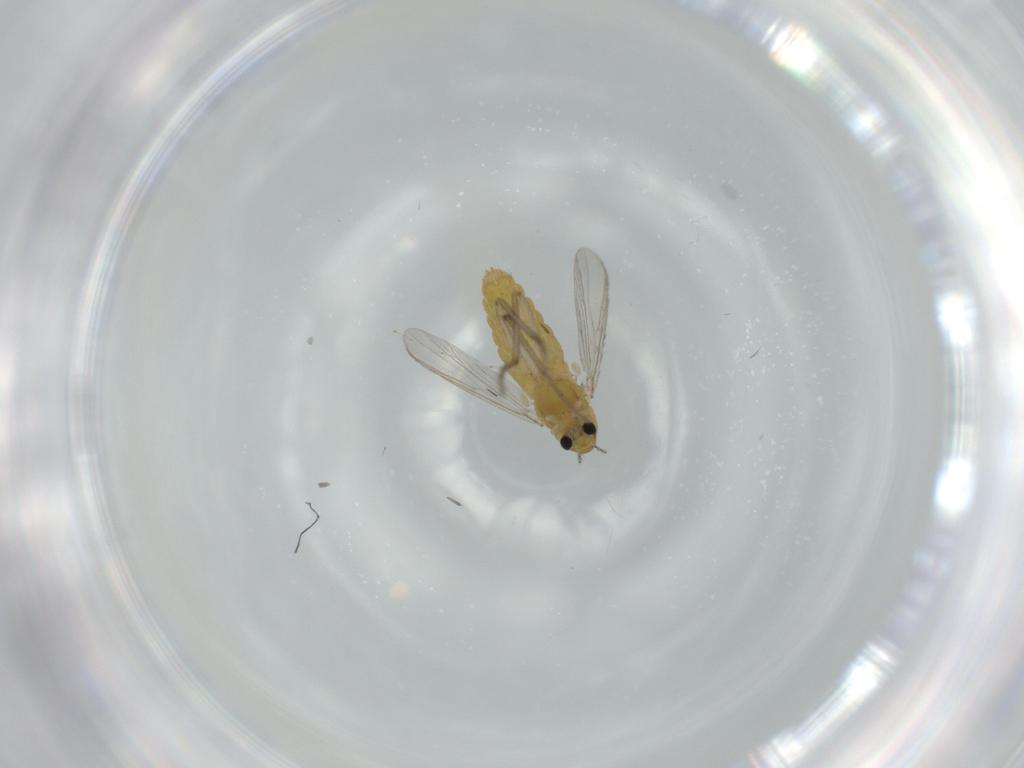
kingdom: Animalia
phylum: Arthropoda
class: Insecta
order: Diptera
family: Chironomidae
